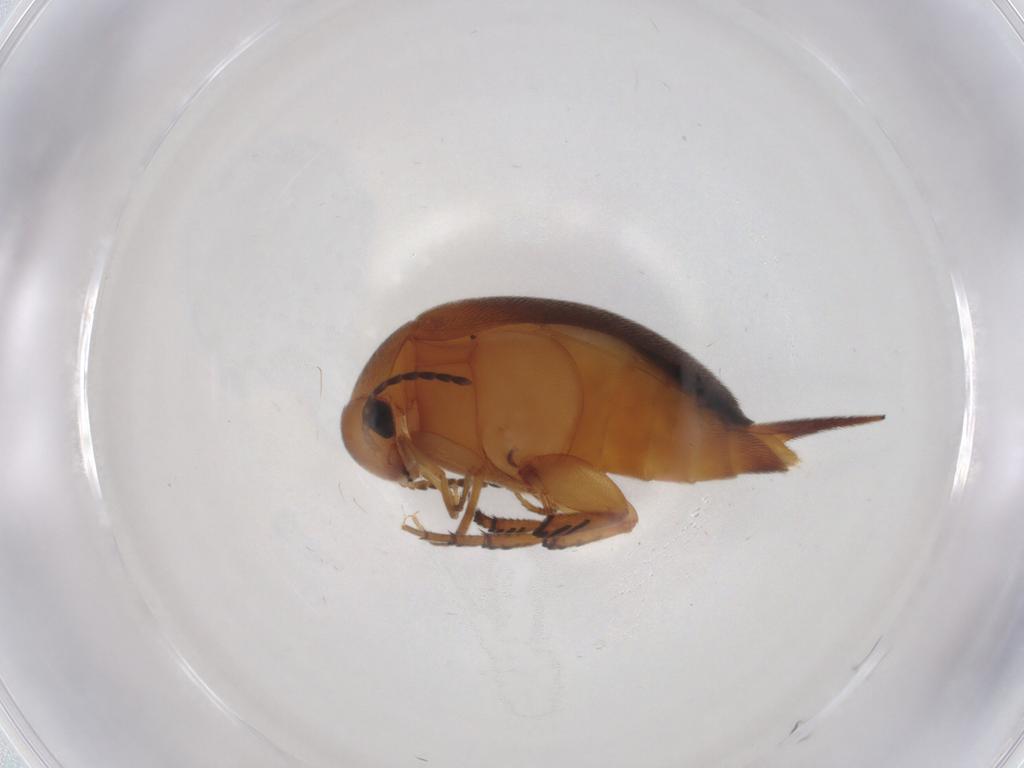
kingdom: Animalia
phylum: Arthropoda
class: Insecta
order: Coleoptera
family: Mordellidae
